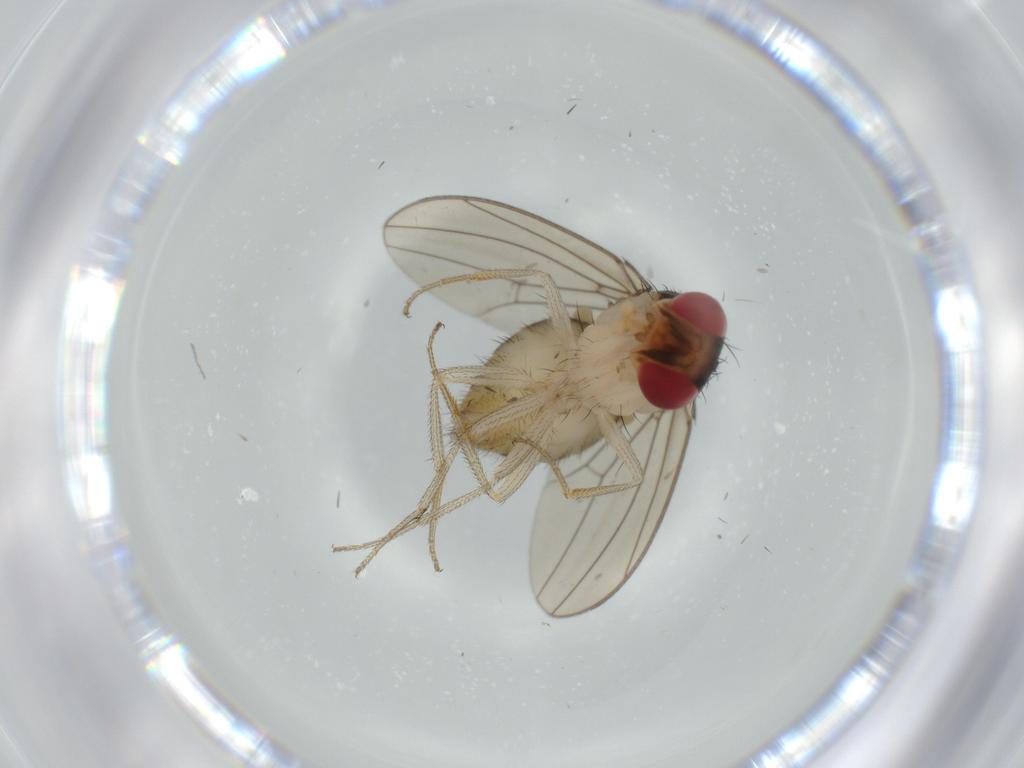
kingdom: Animalia
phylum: Arthropoda
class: Insecta
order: Diptera
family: Drosophilidae
